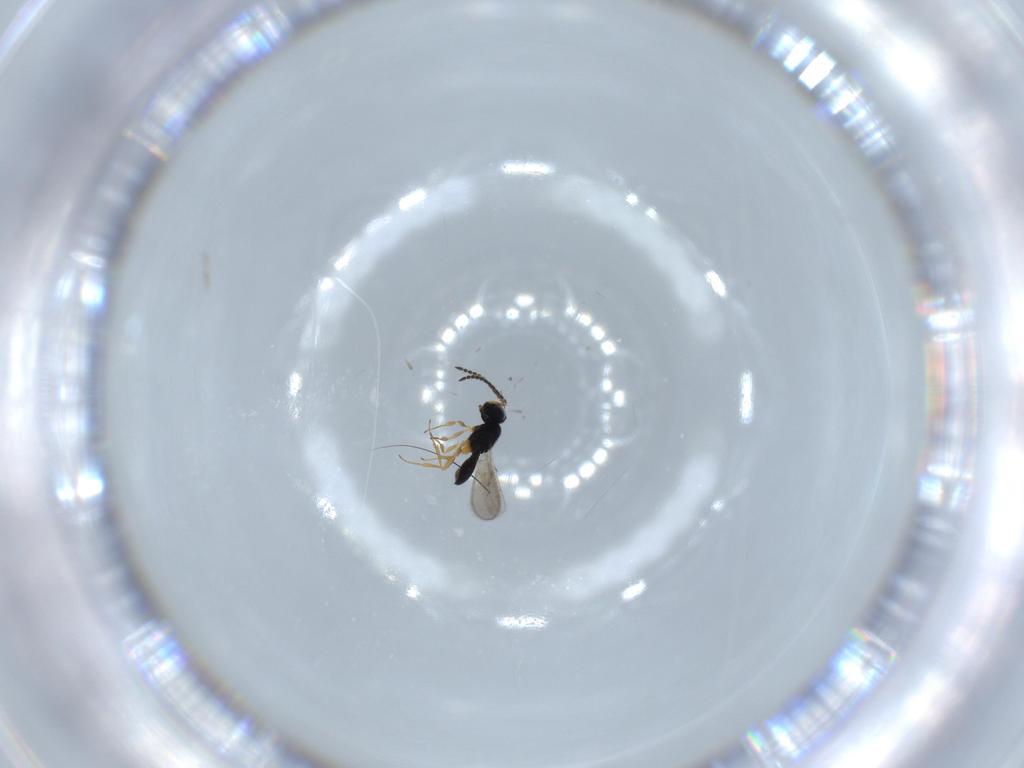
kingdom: Animalia
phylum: Arthropoda
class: Insecta
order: Hymenoptera
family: Scelionidae
